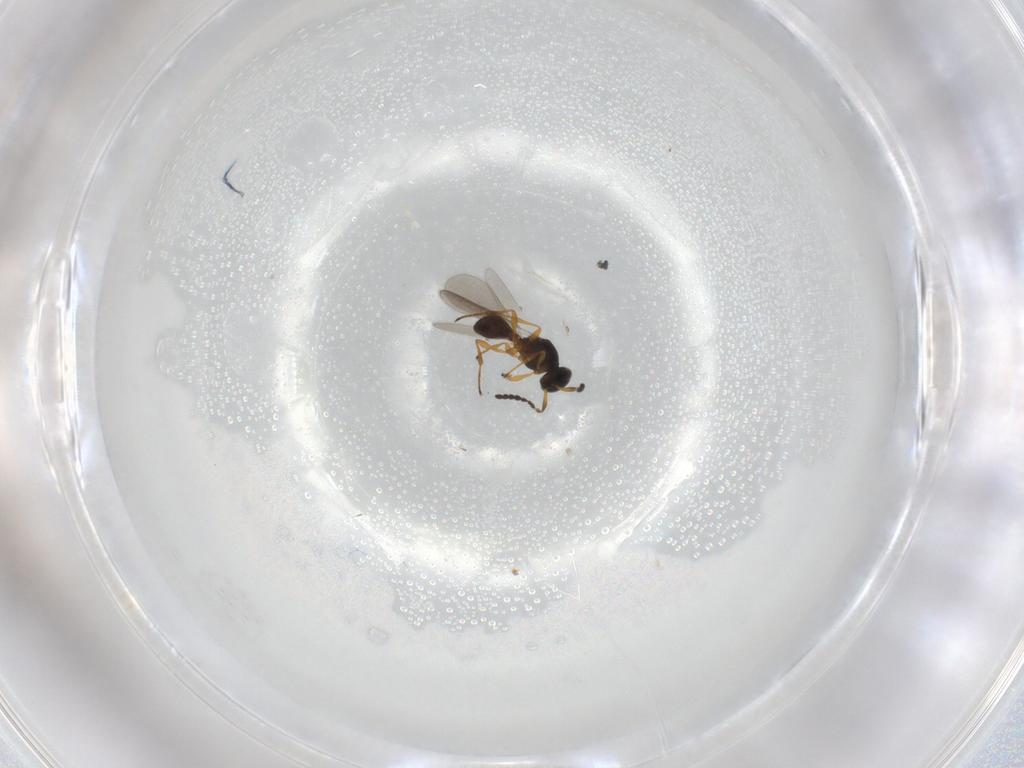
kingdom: Animalia
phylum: Arthropoda
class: Insecta
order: Hymenoptera
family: Platygastridae
